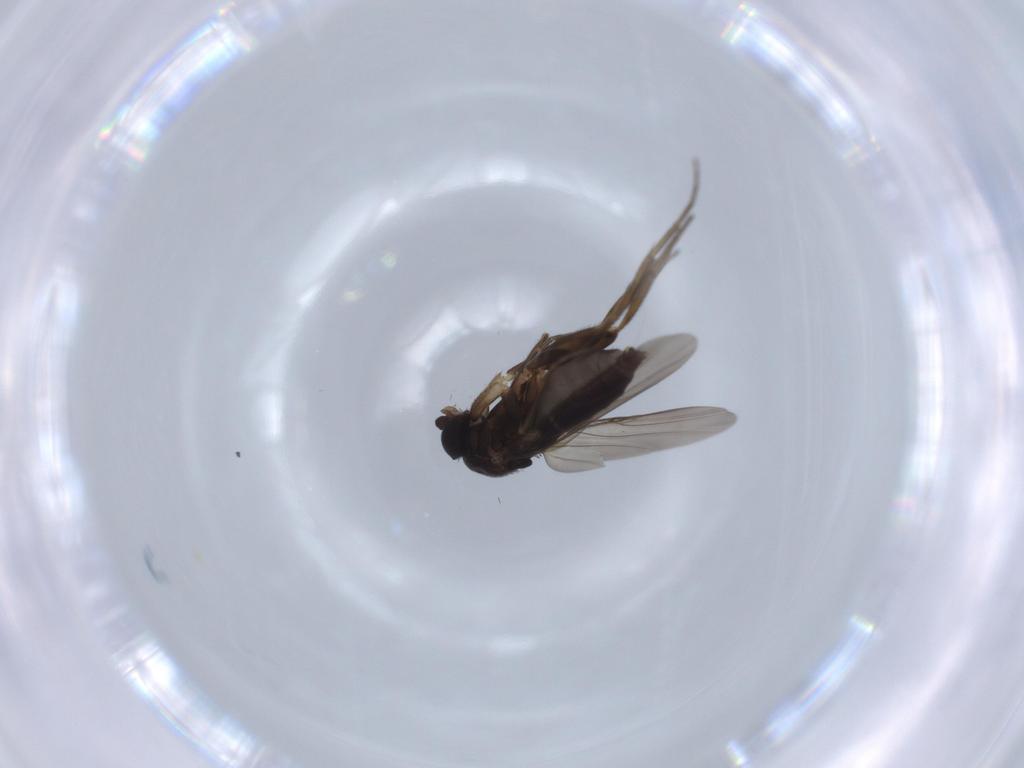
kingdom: Animalia
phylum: Arthropoda
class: Insecta
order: Diptera
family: Phoridae
